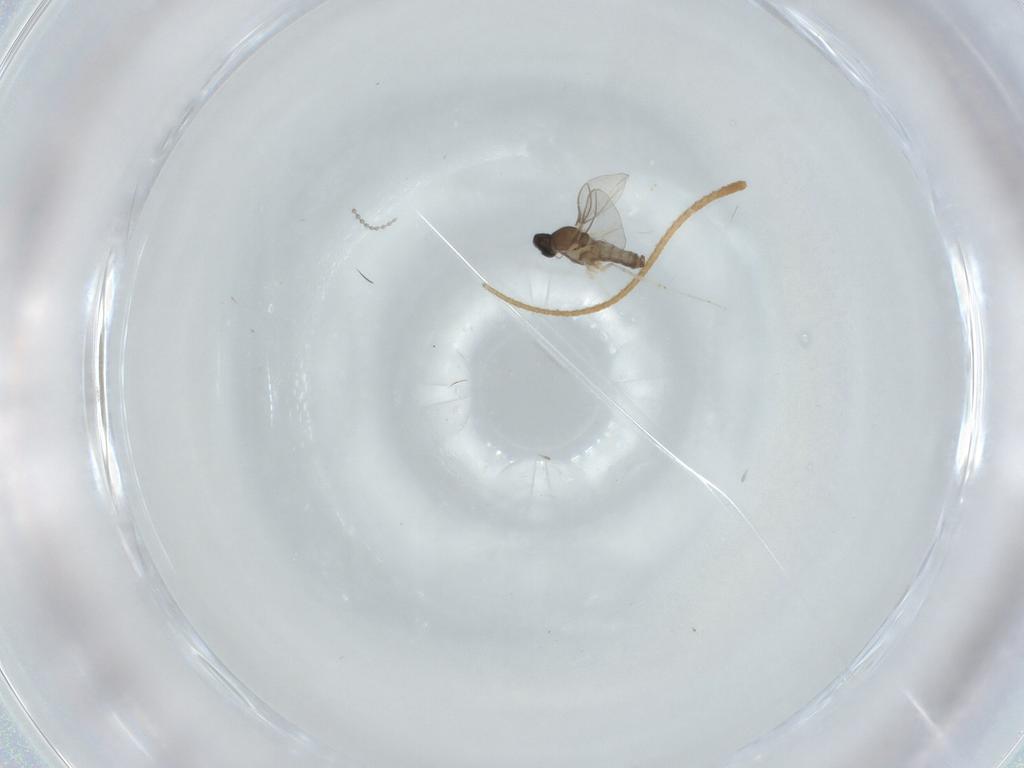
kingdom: Animalia
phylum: Arthropoda
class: Insecta
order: Diptera
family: Cecidomyiidae
